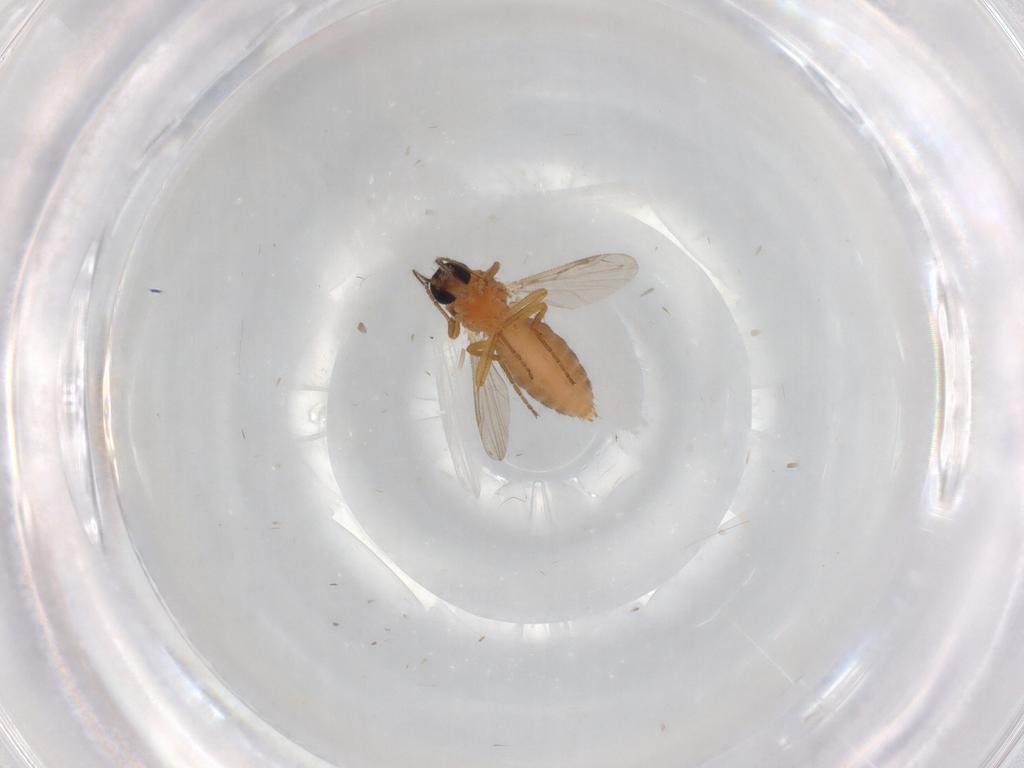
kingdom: Animalia
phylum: Arthropoda
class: Insecta
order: Diptera
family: Chironomidae
